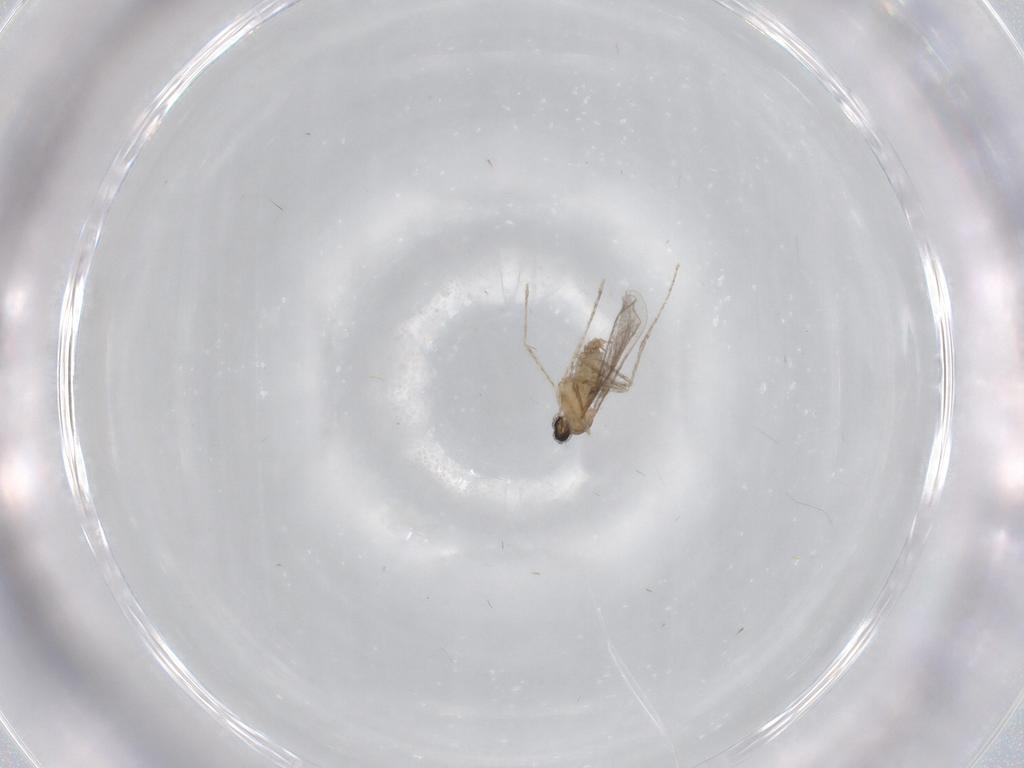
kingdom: Animalia
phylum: Arthropoda
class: Insecta
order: Diptera
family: Cecidomyiidae
